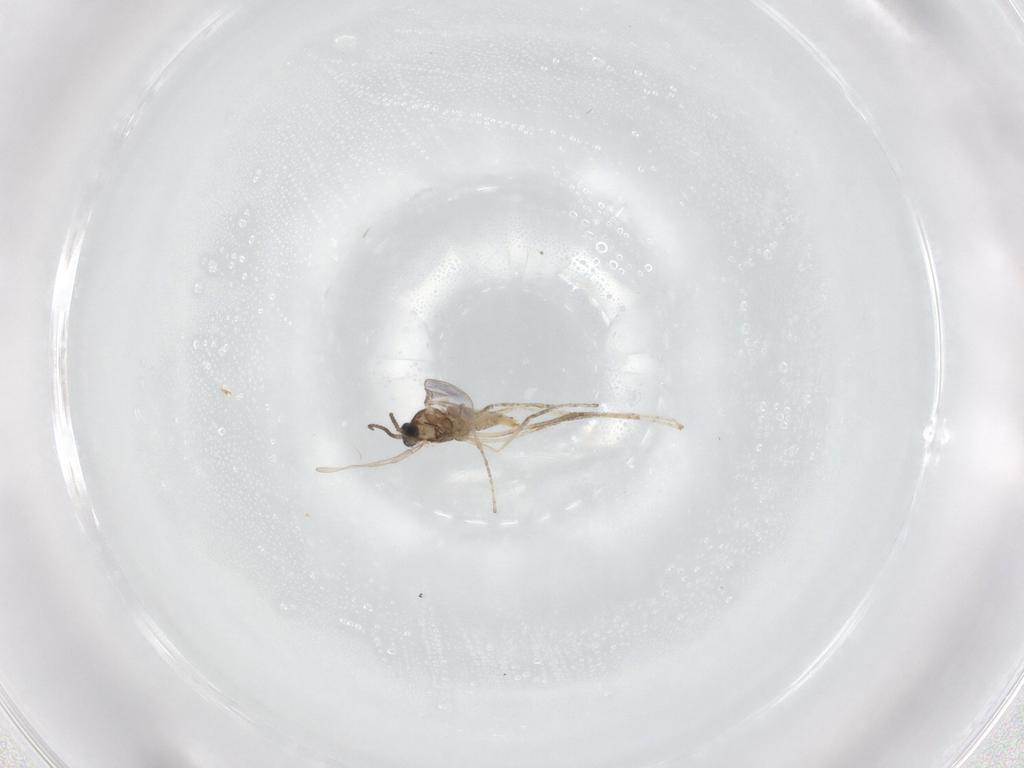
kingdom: Animalia
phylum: Arthropoda
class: Insecta
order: Diptera
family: Cecidomyiidae
